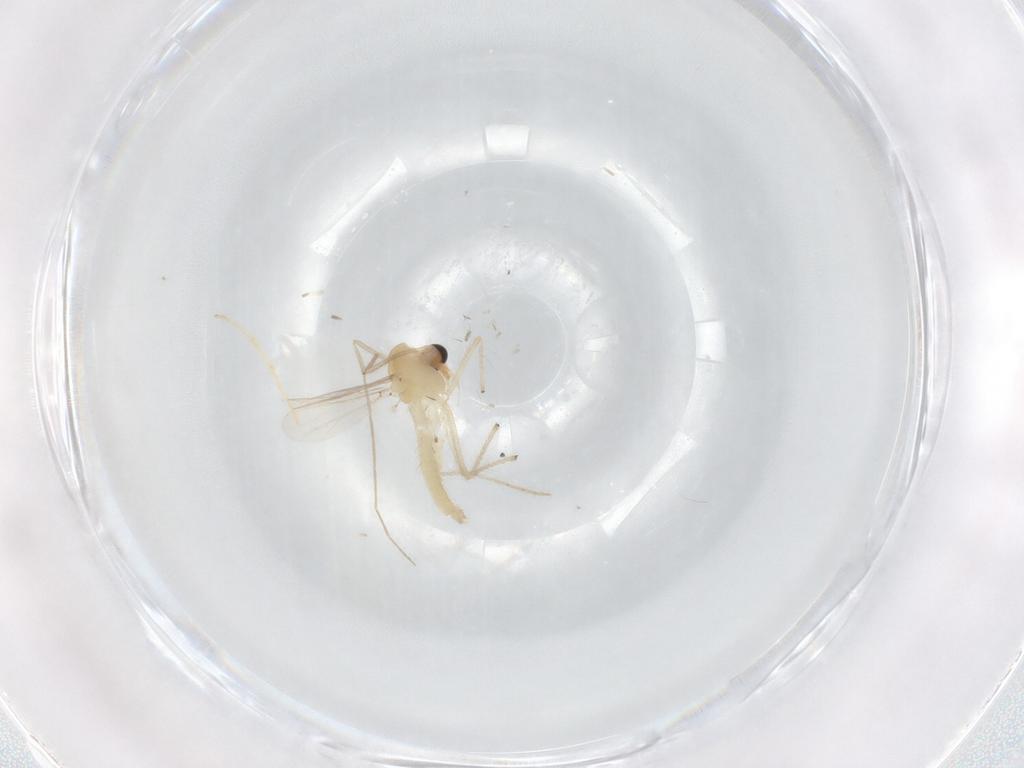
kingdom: Animalia
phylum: Arthropoda
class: Insecta
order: Diptera
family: Chironomidae
